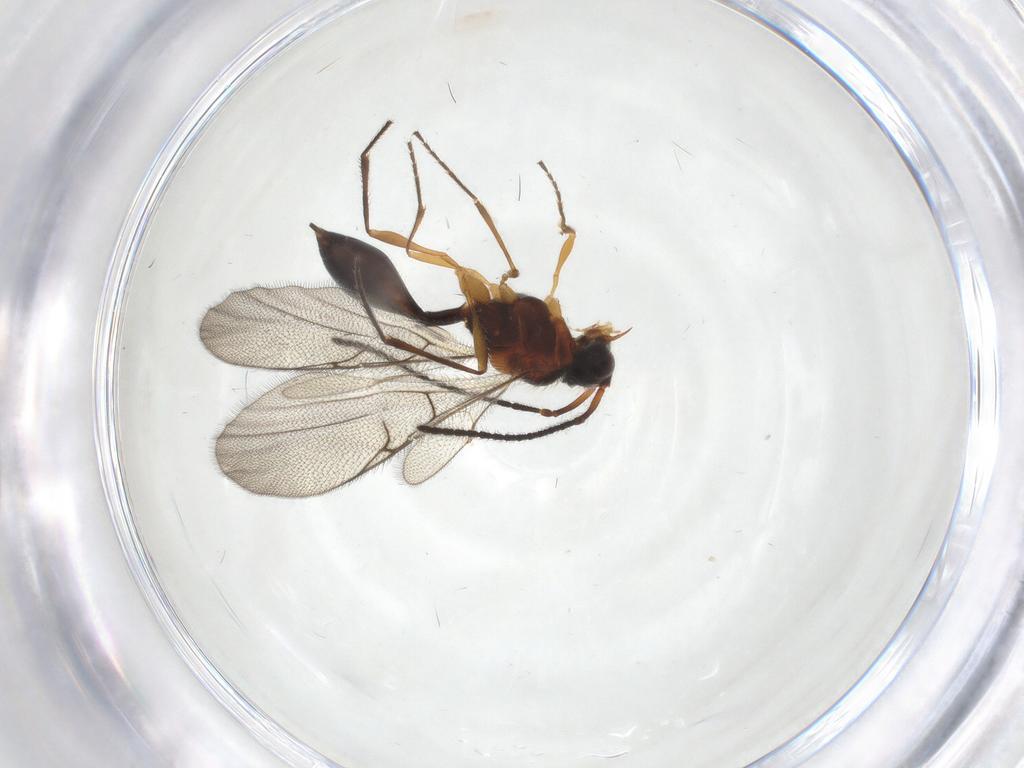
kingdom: Animalia
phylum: Arthropoda
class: Insecta
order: Hymenoptera
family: Diapriidae
